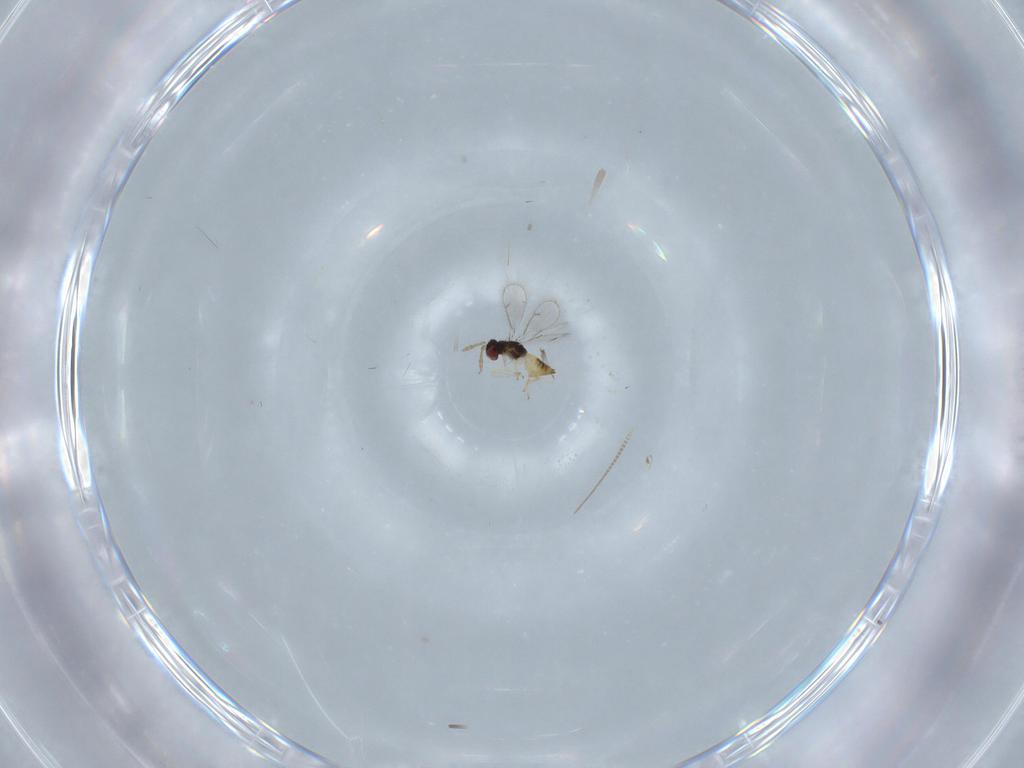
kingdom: Animalia
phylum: Arthropoda
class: Insecta
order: Hymenoptera
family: Eulophidae
